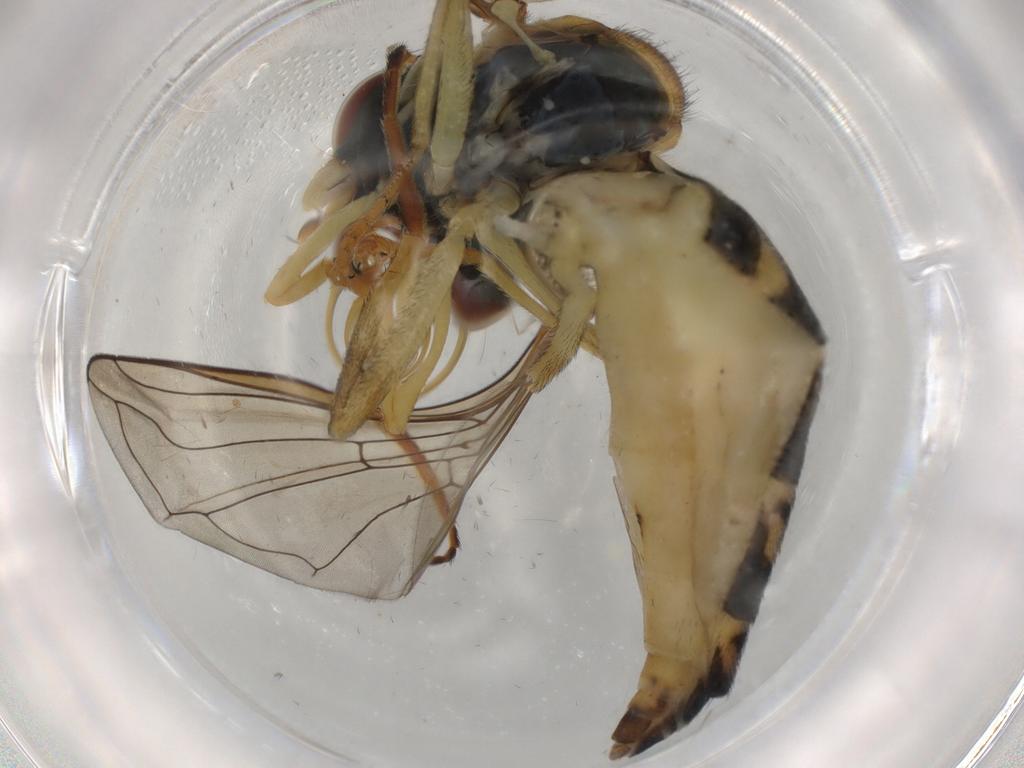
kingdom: Animalia
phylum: Arthropoda
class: Insecta
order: Diptera
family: Syrphidae
